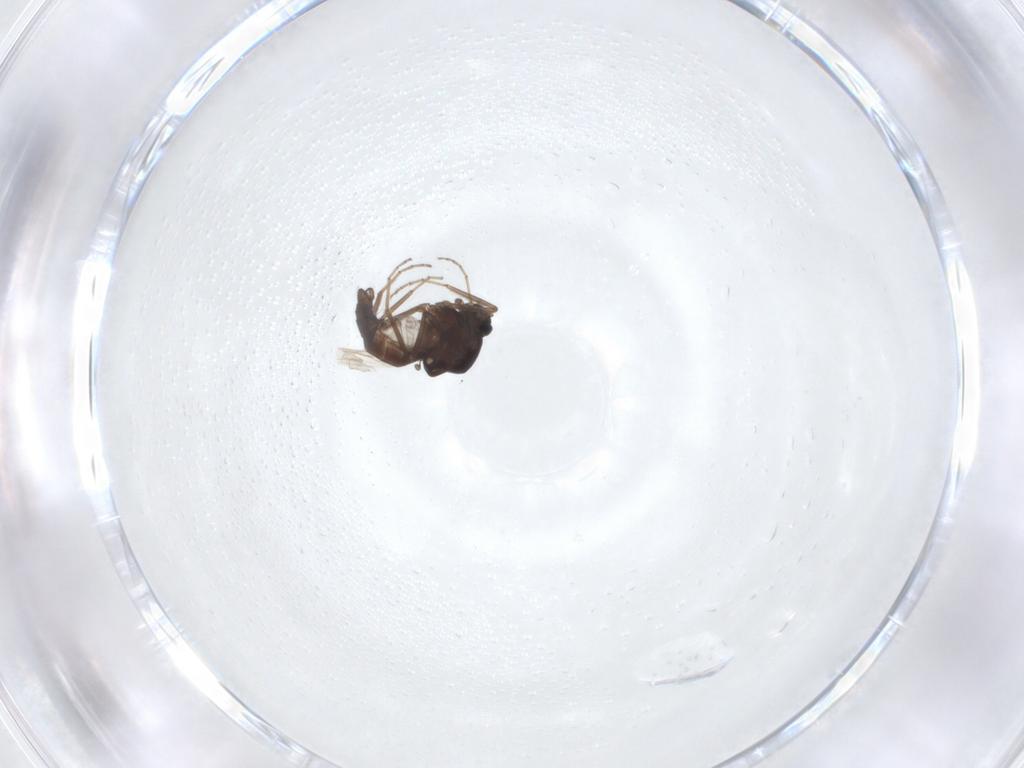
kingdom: Animalia
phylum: Arthropoda
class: Insecta
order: Diptera
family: Ceratopogonidae
